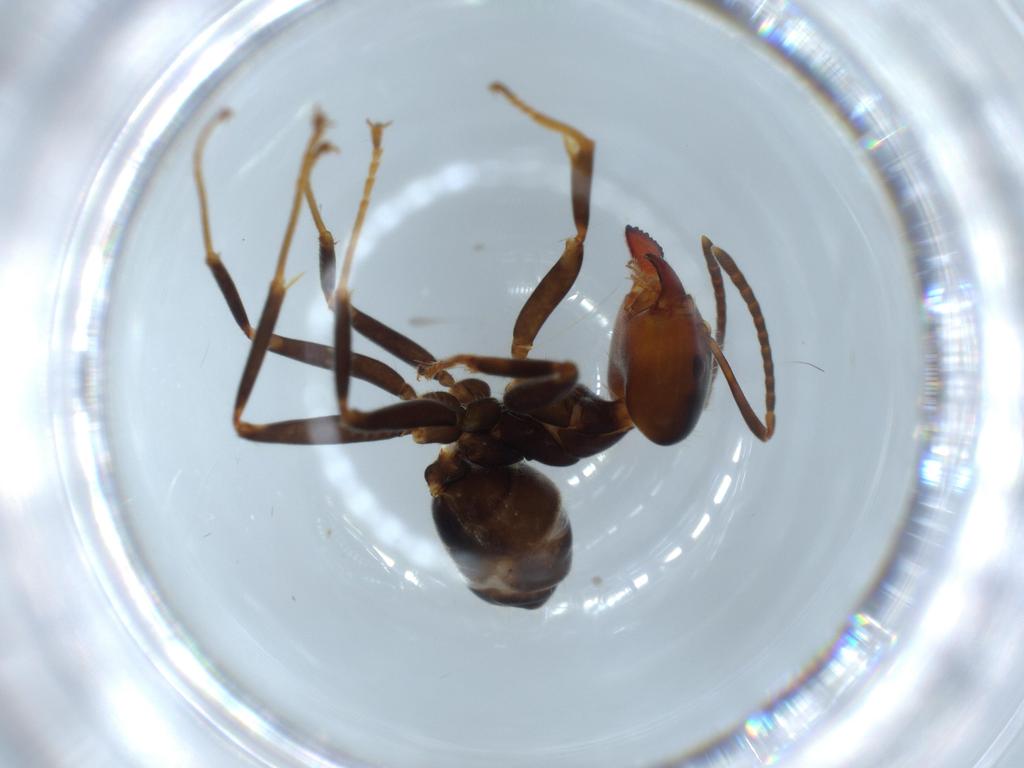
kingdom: Animalia
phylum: Arthropoda
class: Insecta
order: Hymenoptera
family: Formicidae
